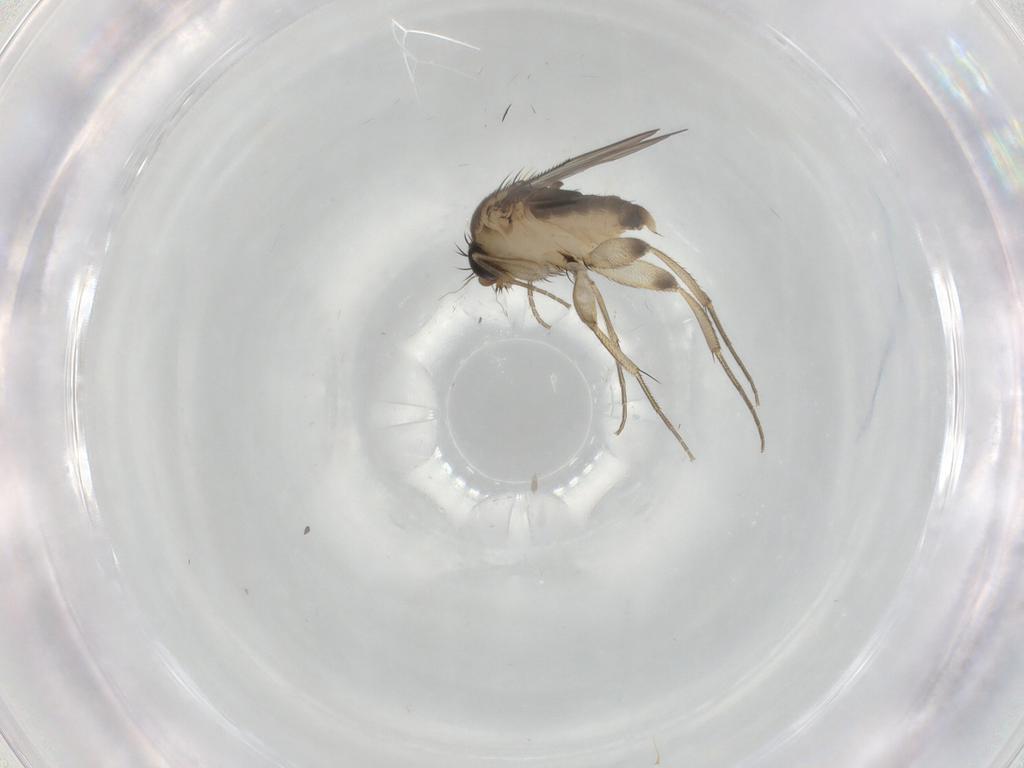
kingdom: Animalia
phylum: Arthropoda
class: Insecta
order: Diptera
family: Cecidomyiidae
